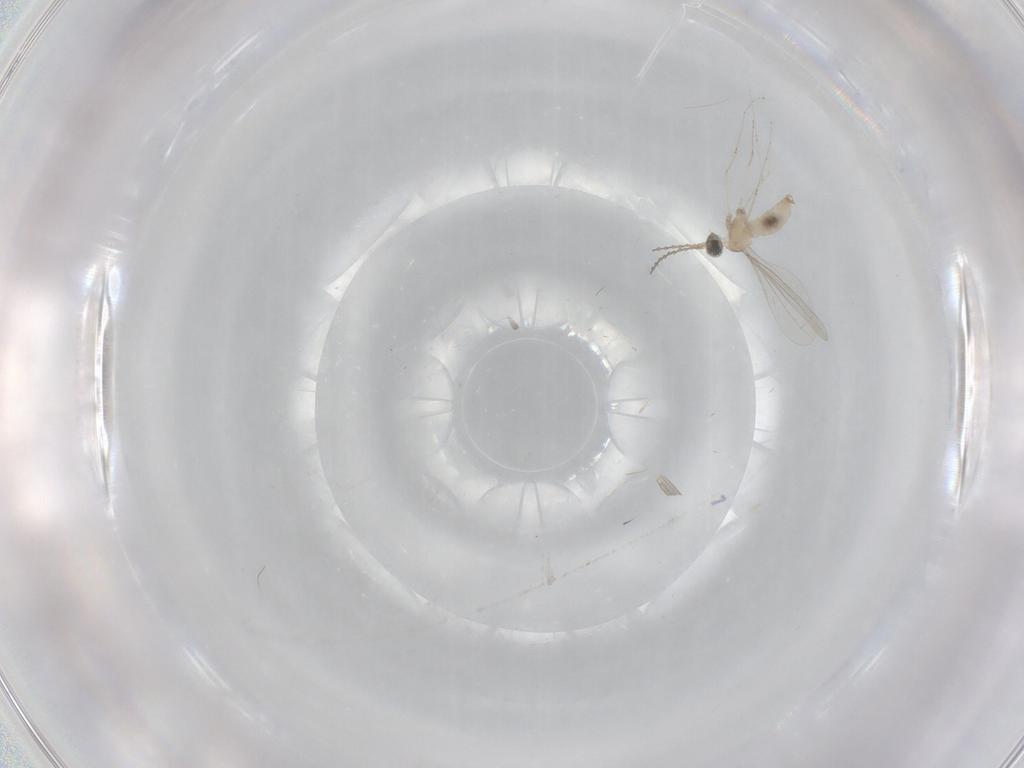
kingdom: Animalia
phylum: Arthropoda
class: Insecta
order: Diptera
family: Cecidomyiidae
